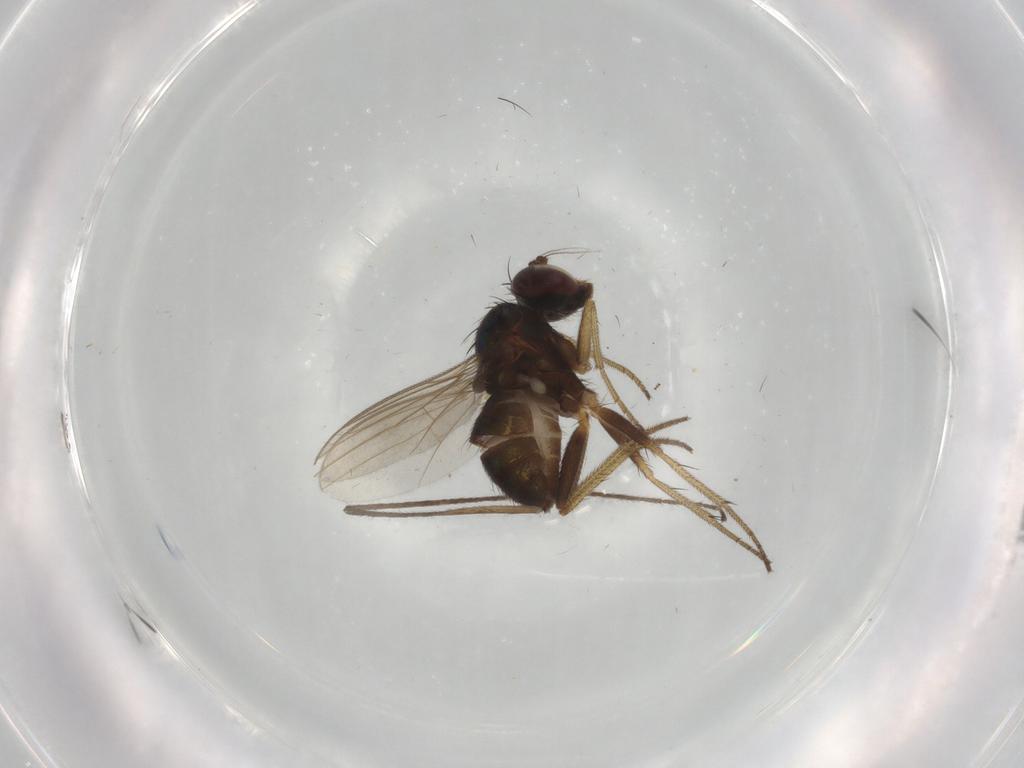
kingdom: Animalia
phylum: Arthropoda
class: Insecta
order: Diptera
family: Dolichopodidae
